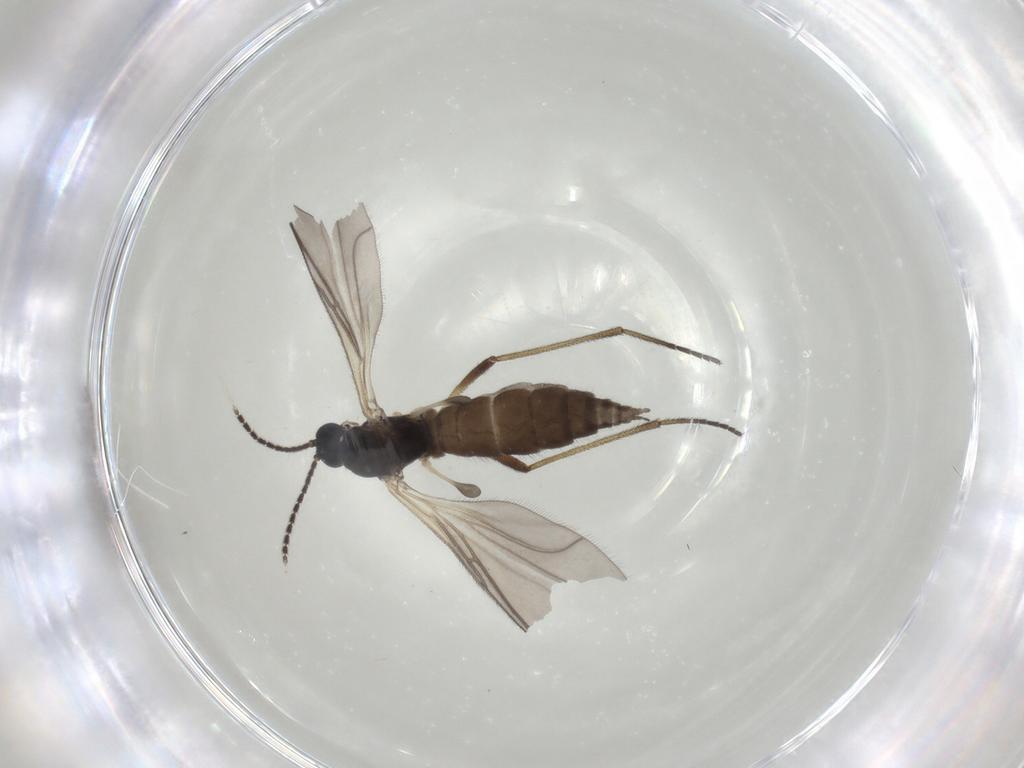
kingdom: Animalia
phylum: Arthropoda
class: Insecta
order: Diptera
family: Sciaridae
